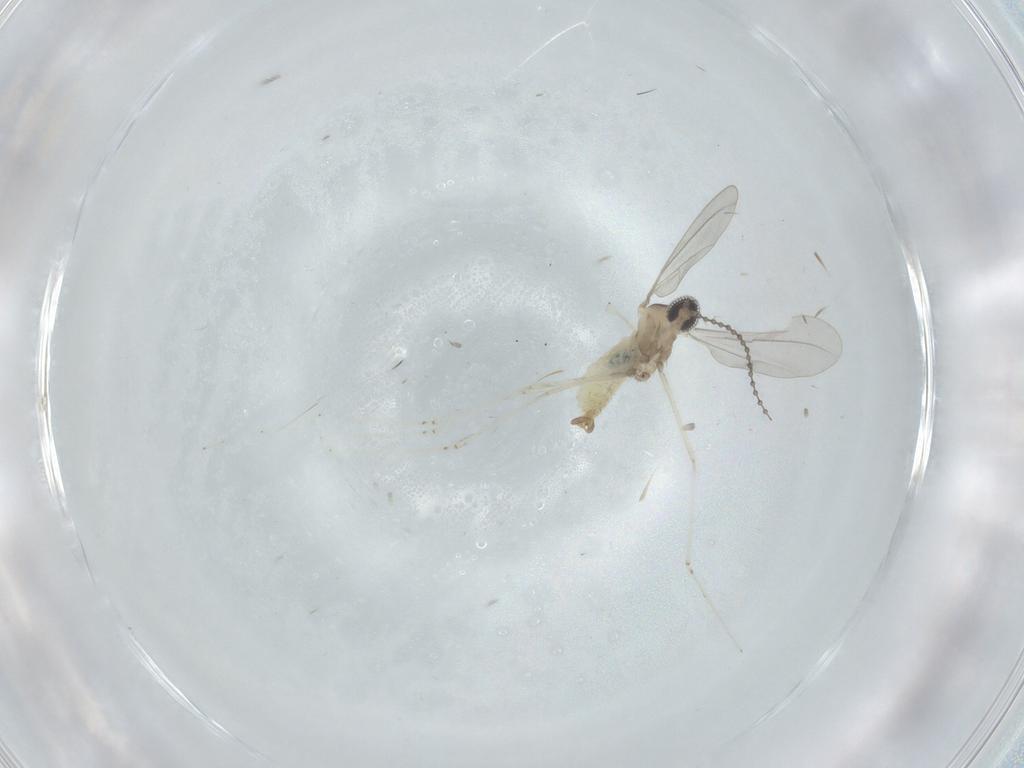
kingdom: Animalia
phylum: Arthropoda
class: Insecta
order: Diptera
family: Cecidomyiidae
